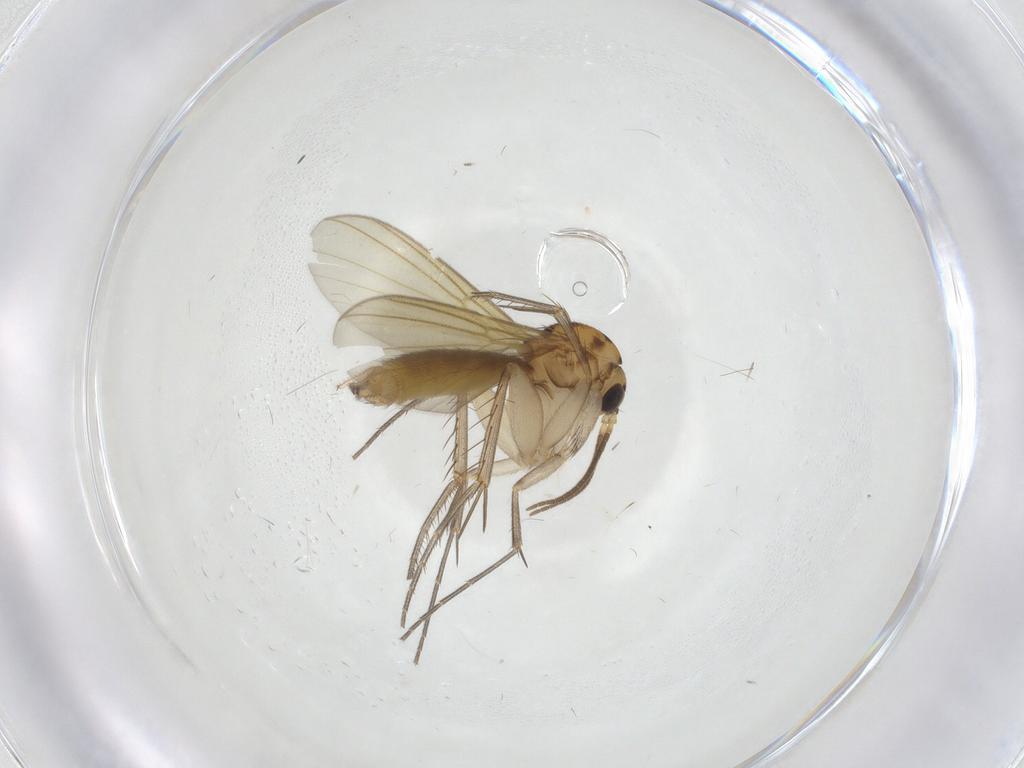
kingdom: Animalia
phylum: Arthropoda
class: Insecta
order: Diptera
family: Mycetophilidae
